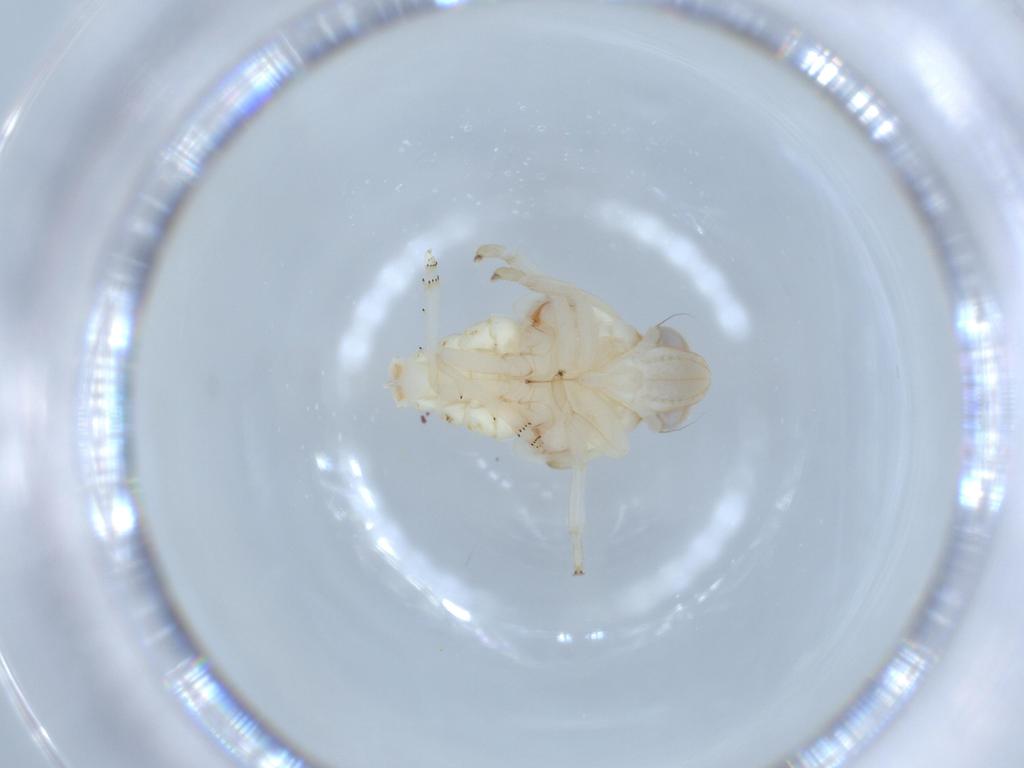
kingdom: Animalia
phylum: Arthropoda
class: Insecta
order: Hemiptera
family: Nogodinidae
